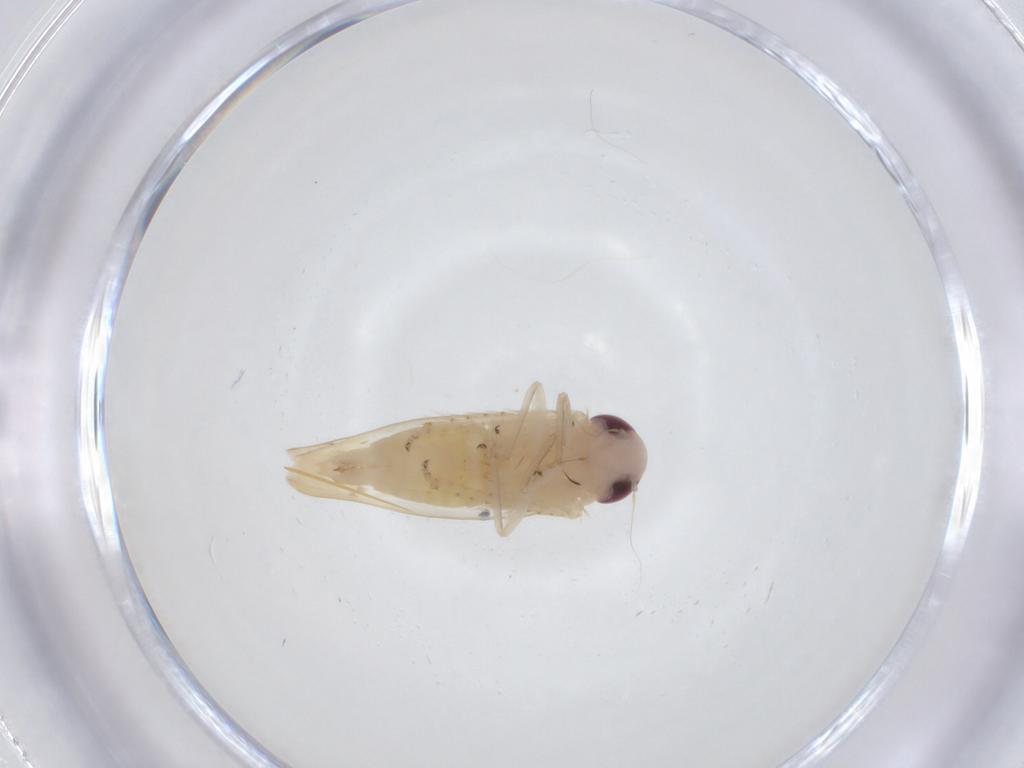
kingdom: Animalia
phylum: Arthropoda
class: Insecta
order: Hemiptera
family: Cicadellidae
